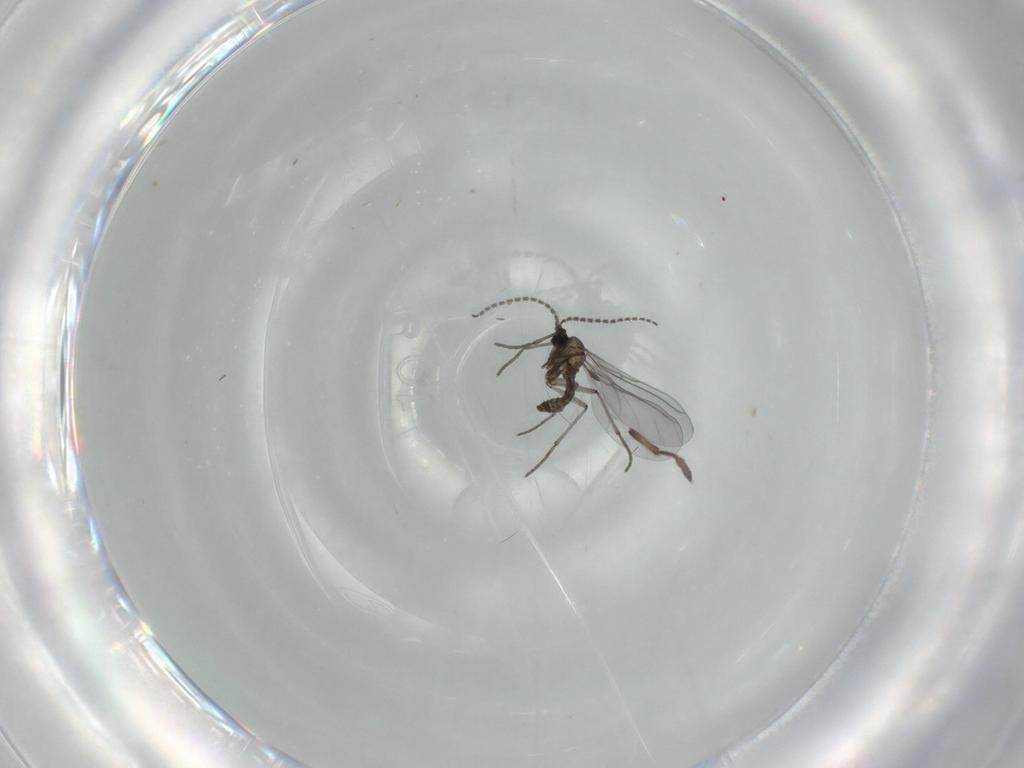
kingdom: Animalia
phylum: Arthropoda
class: Insecta
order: Diptera
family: Sciaridae
